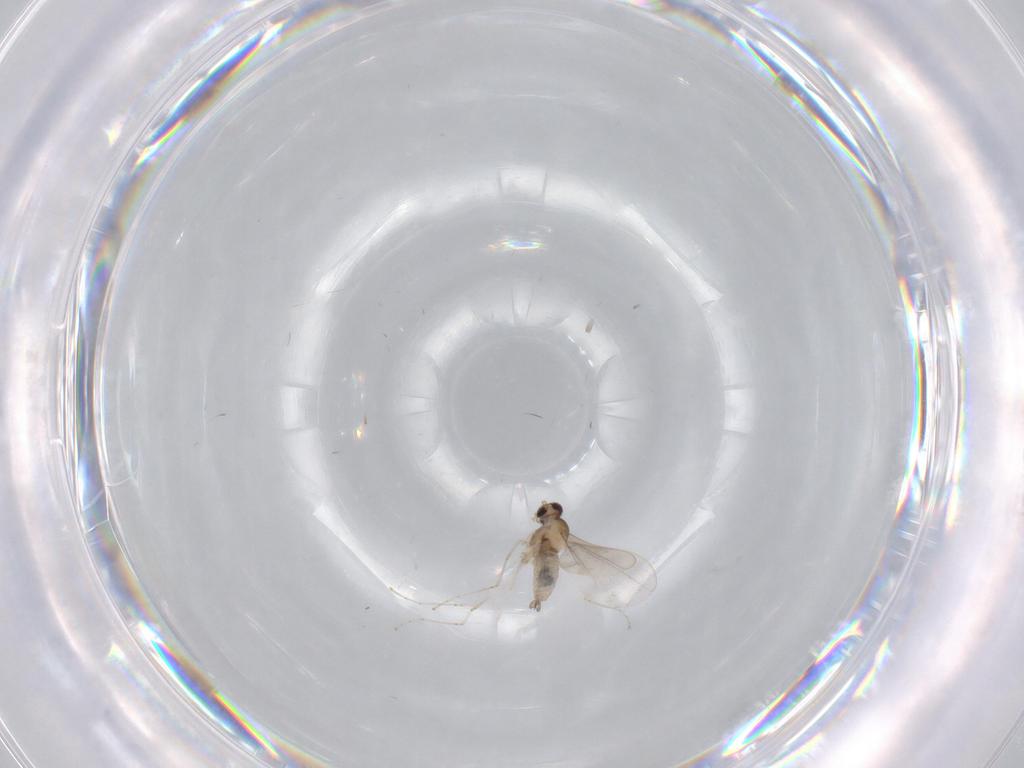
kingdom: Animalia
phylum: Arthropoda
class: Insecta
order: Diptera
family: Cecidomyiidae
